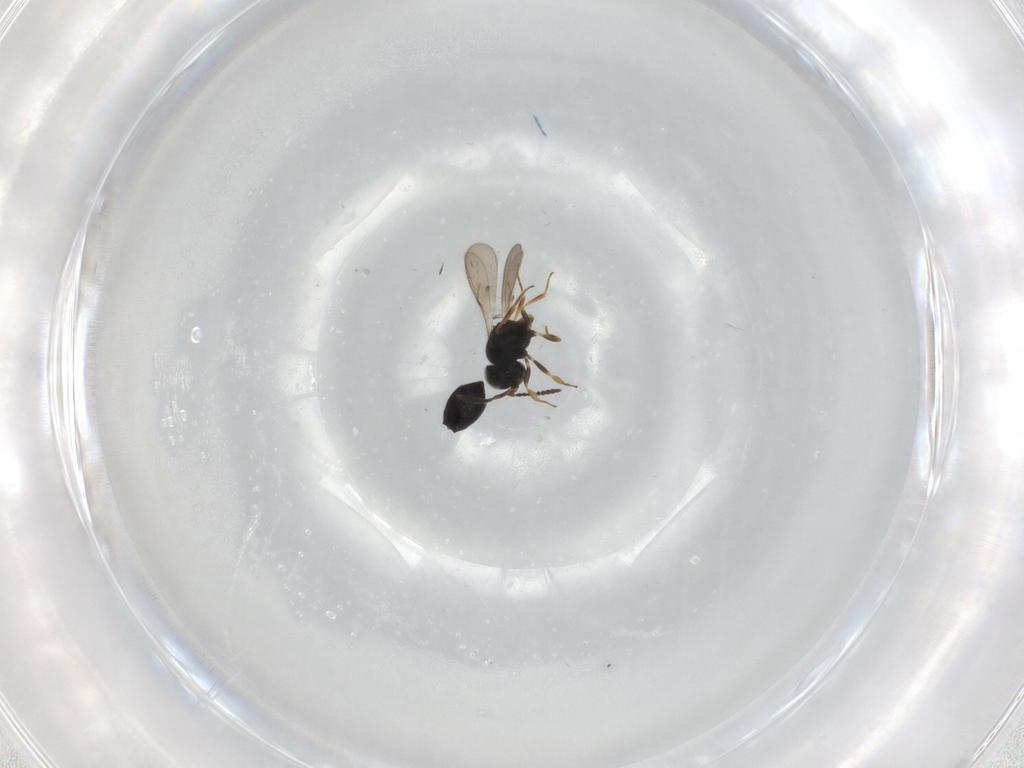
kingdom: Animalia
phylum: Arthropoda
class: Insecta
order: Hymenoptera
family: Scelionidae
